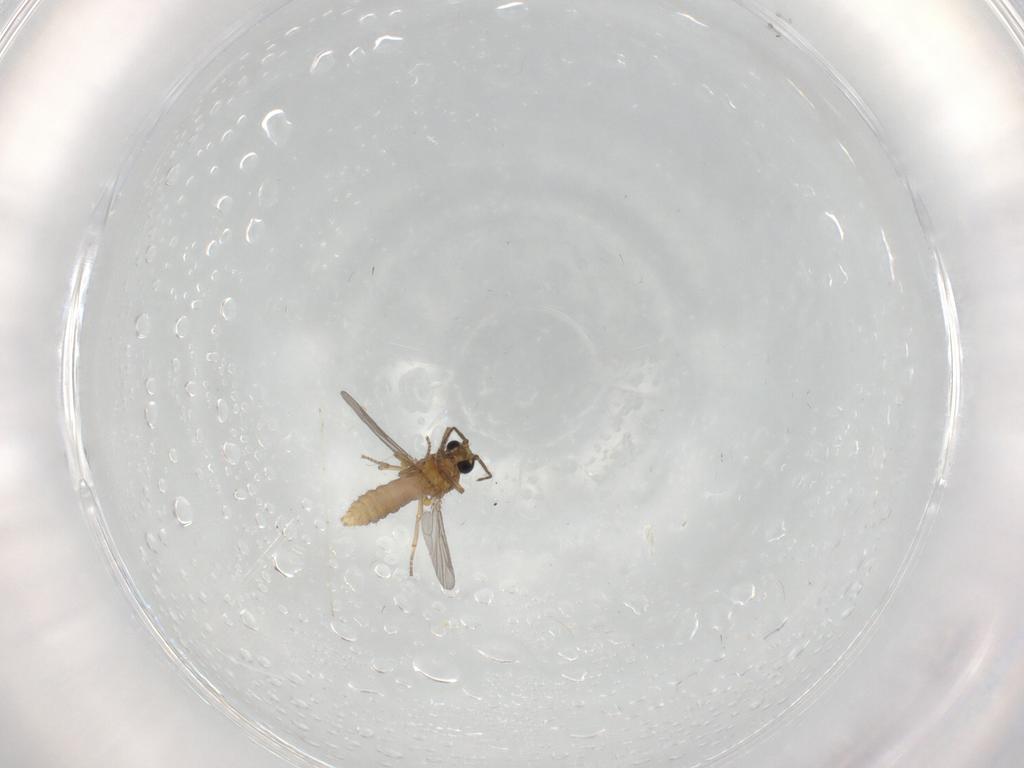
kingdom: Animalia
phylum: Arthropoda
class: Insecta
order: Diptera
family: Ceratopogonidae
